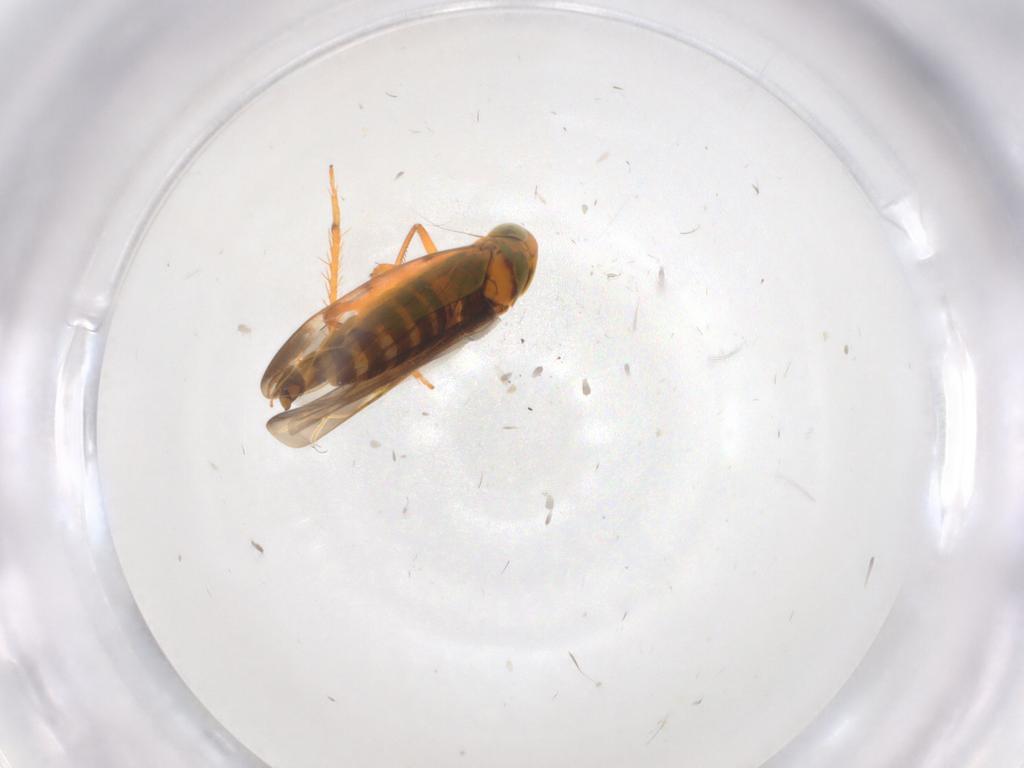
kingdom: Animalia
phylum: Arthropoda
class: Insecta
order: Hemiptera
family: Cicadellidae
